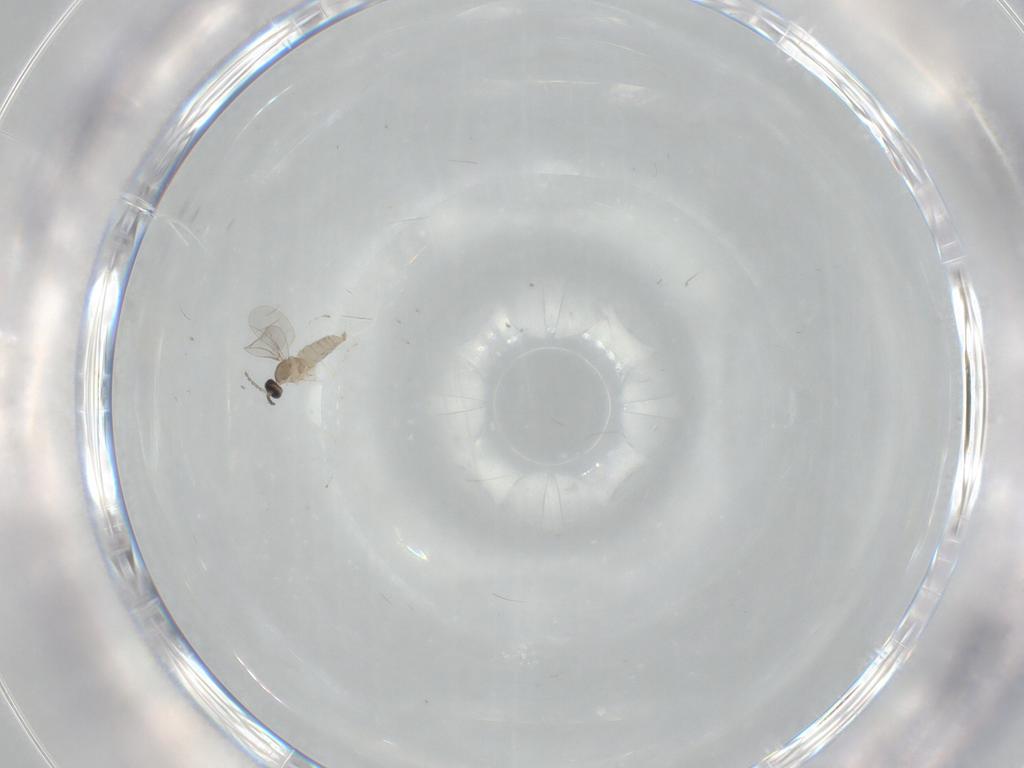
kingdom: Animalia
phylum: Arthropoda
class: Insecta
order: Diptera
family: Cecidomyiidae
